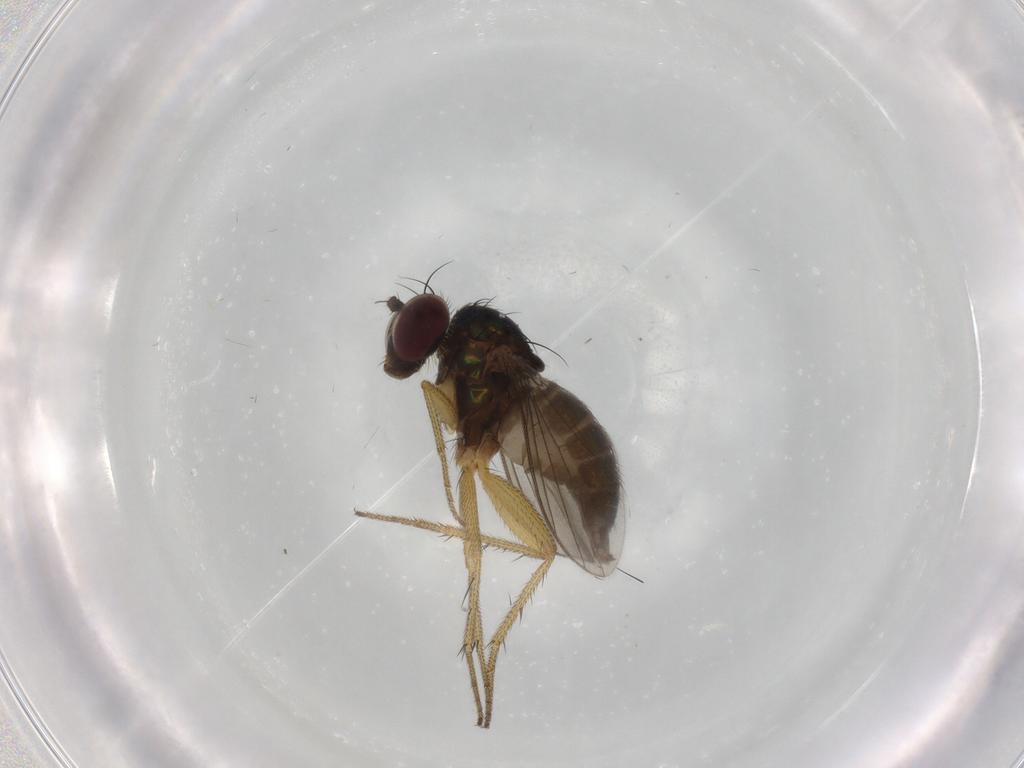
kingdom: Animalia
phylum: Arthropoda
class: Insecta
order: Diptera
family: Dolichopodidae
